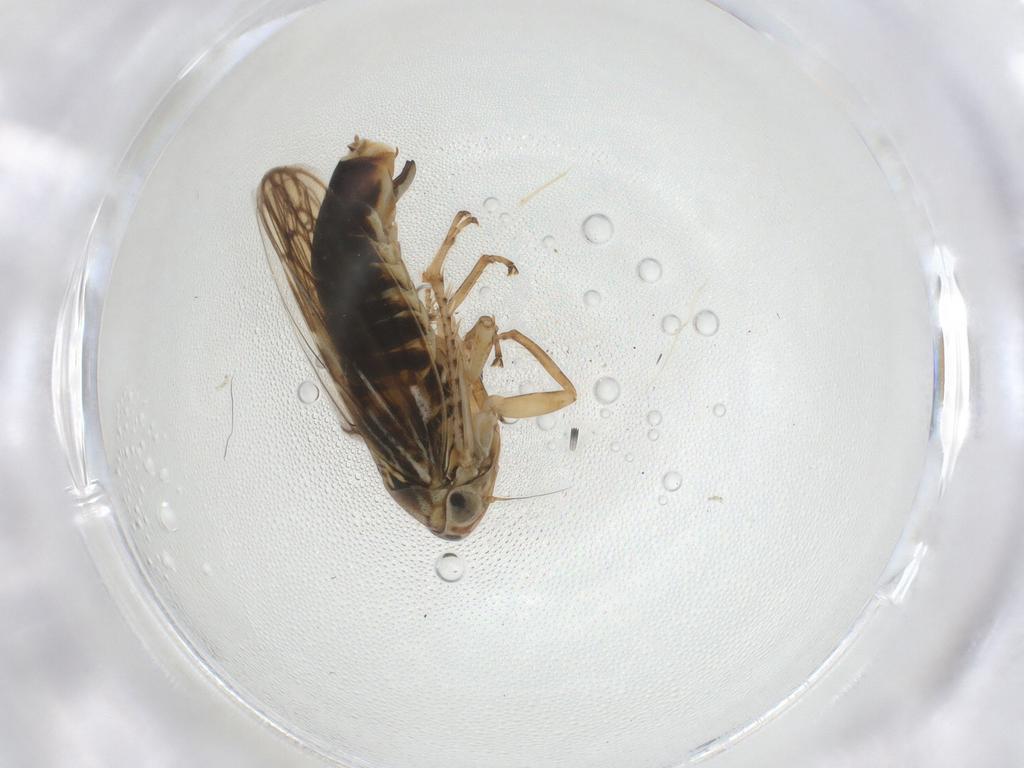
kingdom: Animalia
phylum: Arthropoda
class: Insecta
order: Hemiptera
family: Cicadellidae
